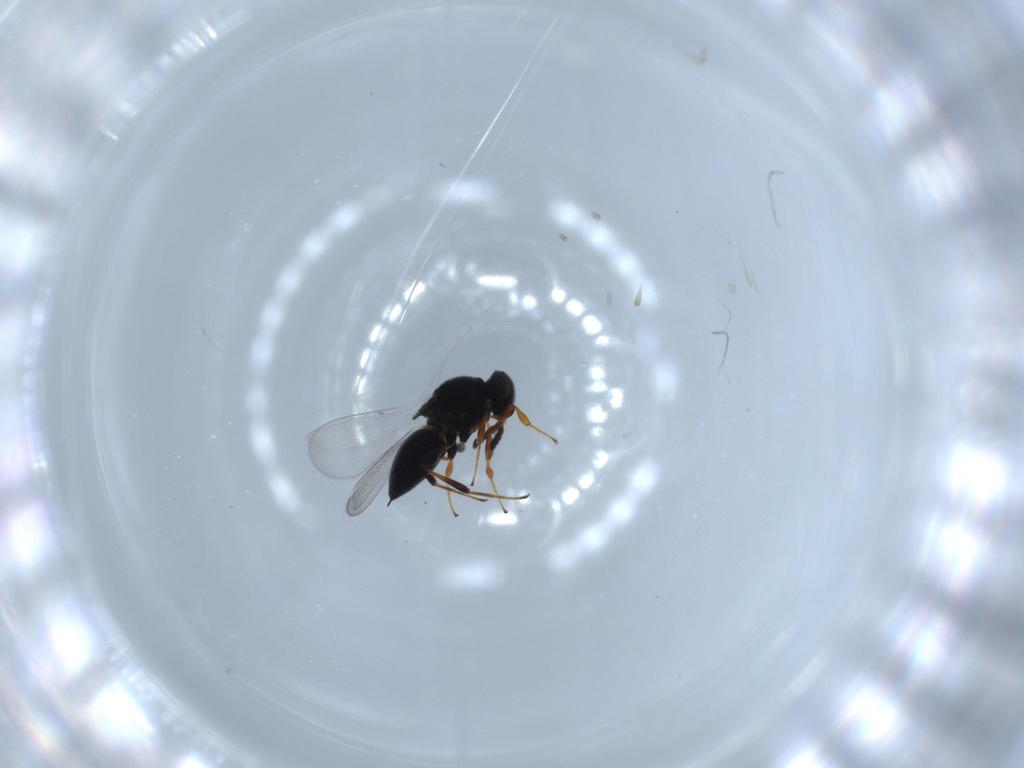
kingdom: Animalia
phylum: Arthropoda
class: Insecta
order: Hymenoptera
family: Platygastridae
